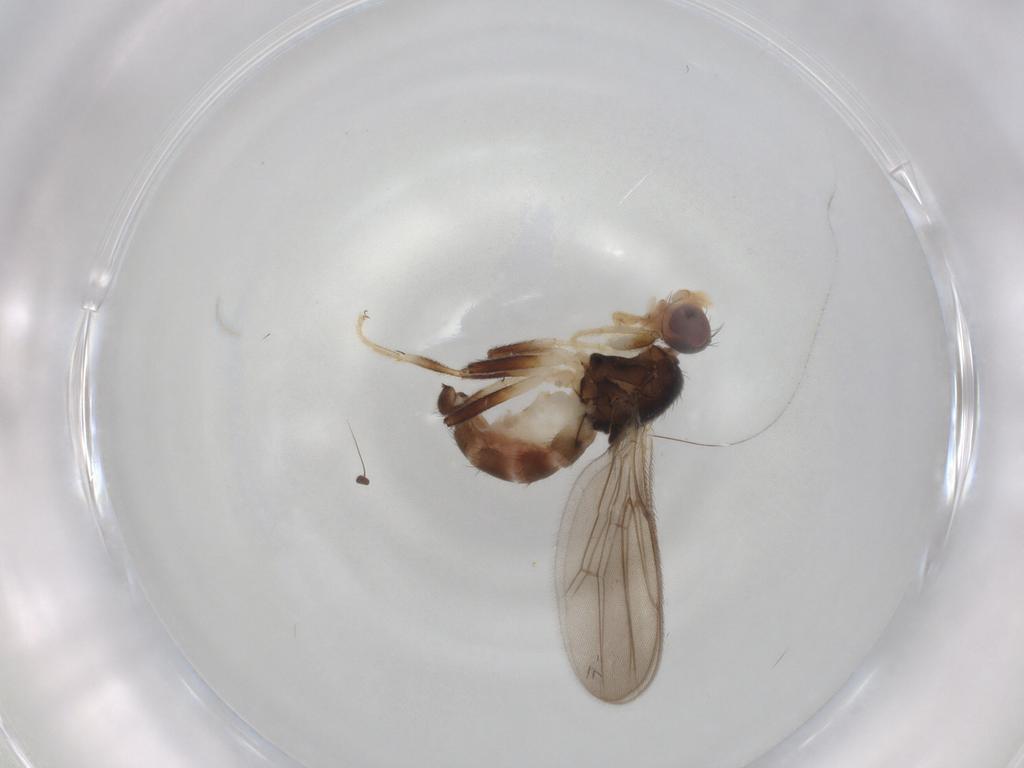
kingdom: Animalia
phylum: Arthropoda
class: Insecta
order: Diptera
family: Chloropidae
